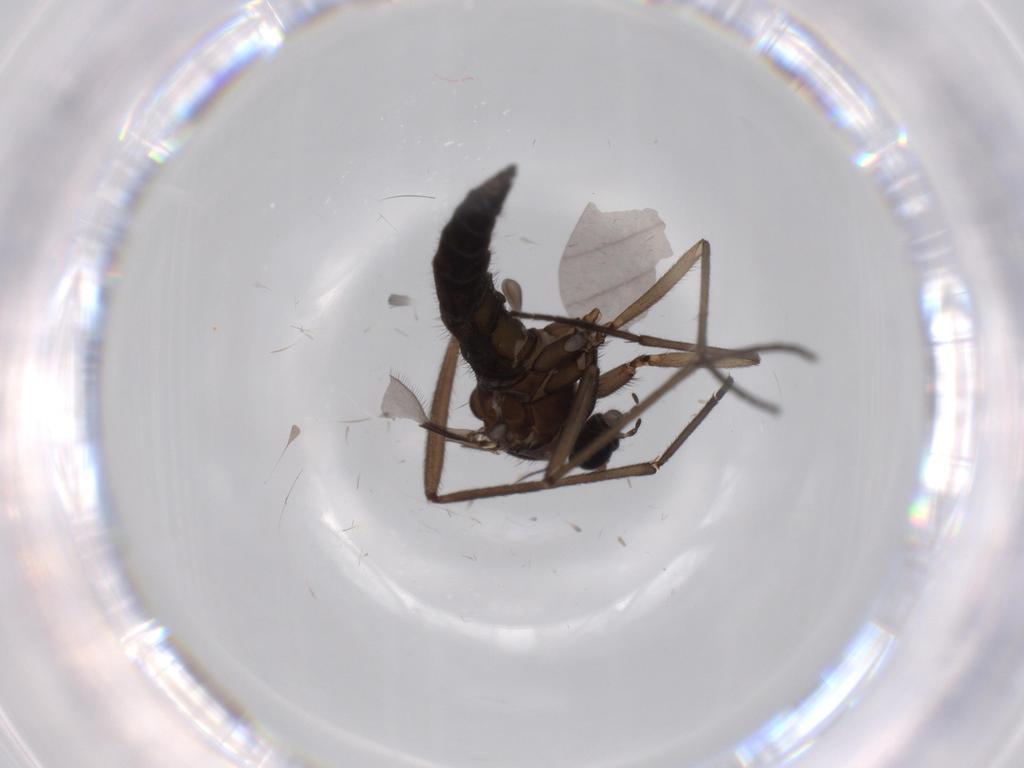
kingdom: Animalia
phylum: Arthropoda
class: Insecta
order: Diptera
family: Sciaridae
